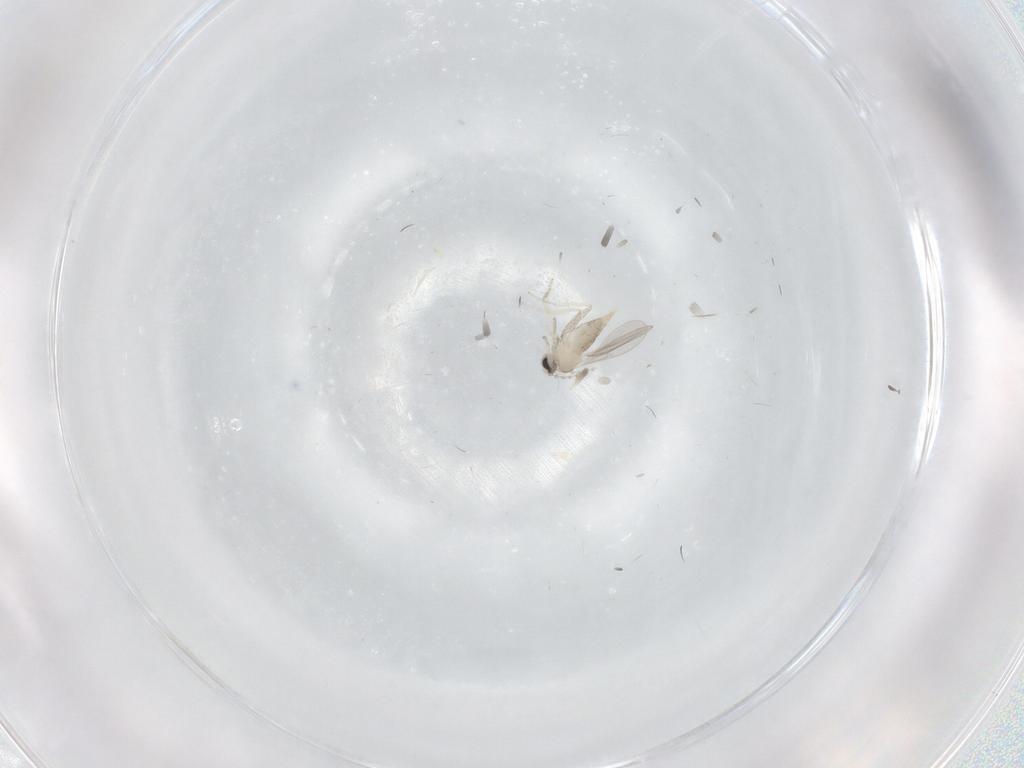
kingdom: Animalia
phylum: Arthropoda
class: Insecta
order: Diptera
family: Cecidomyiidae
